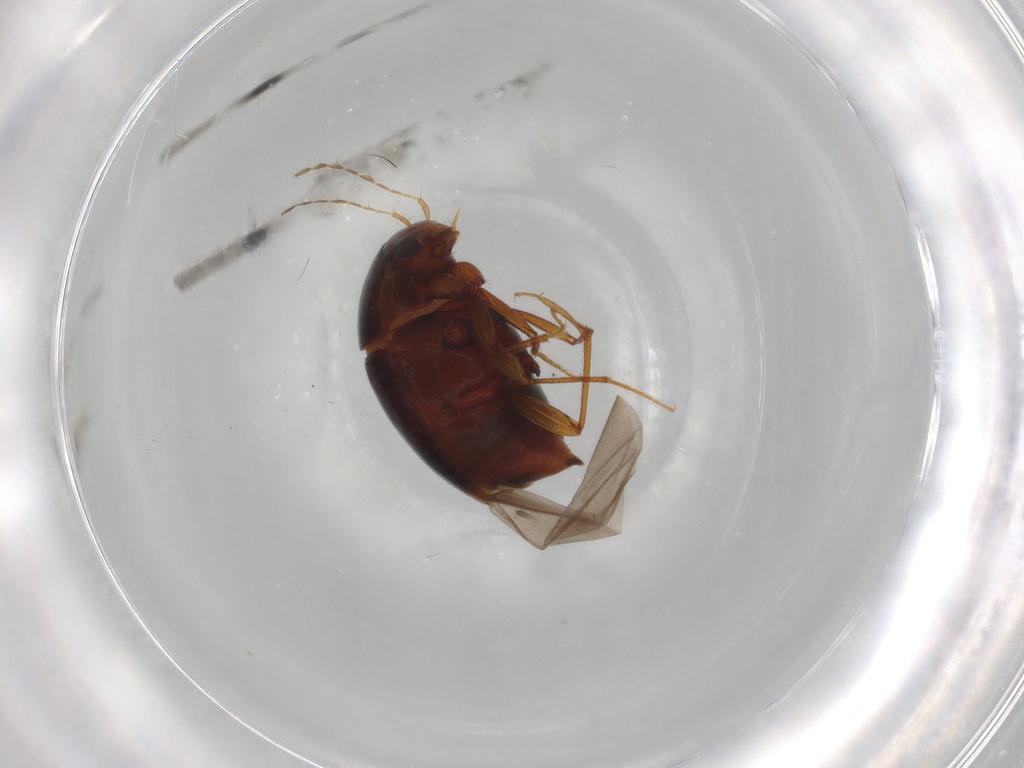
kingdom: Animalia
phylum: Arthropoda
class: Insecta
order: Coleoptera
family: Staphylinidae
